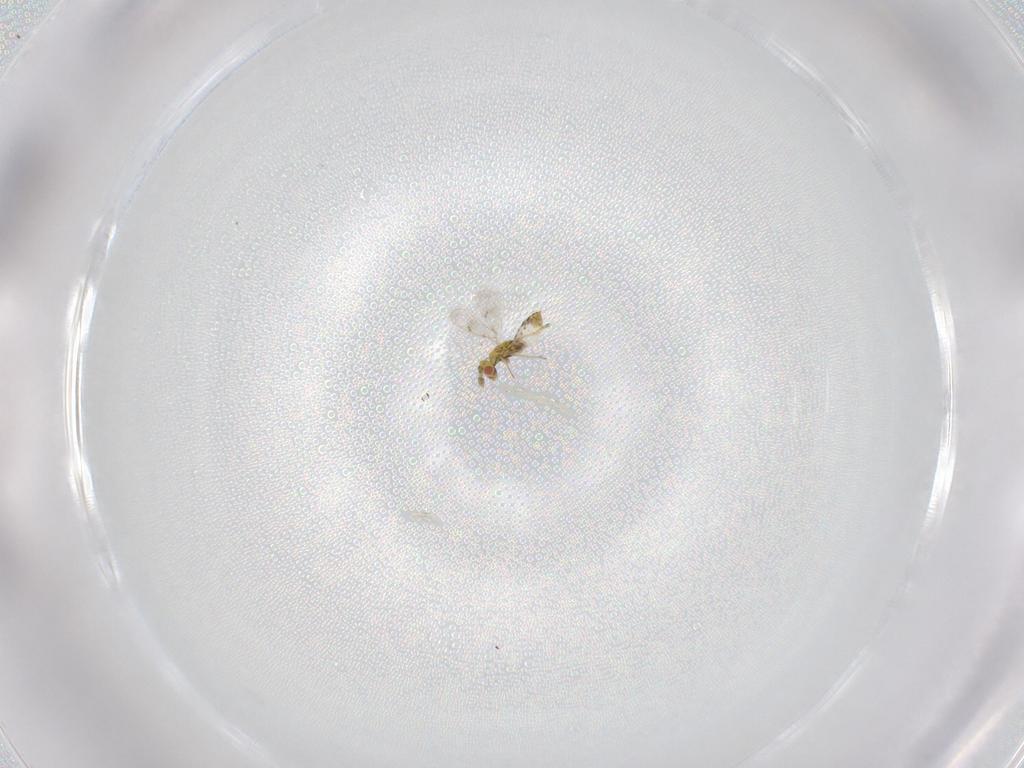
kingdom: Animalia
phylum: Arthropoda
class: Insecta
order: Hymenoptera
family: Eulophidae
